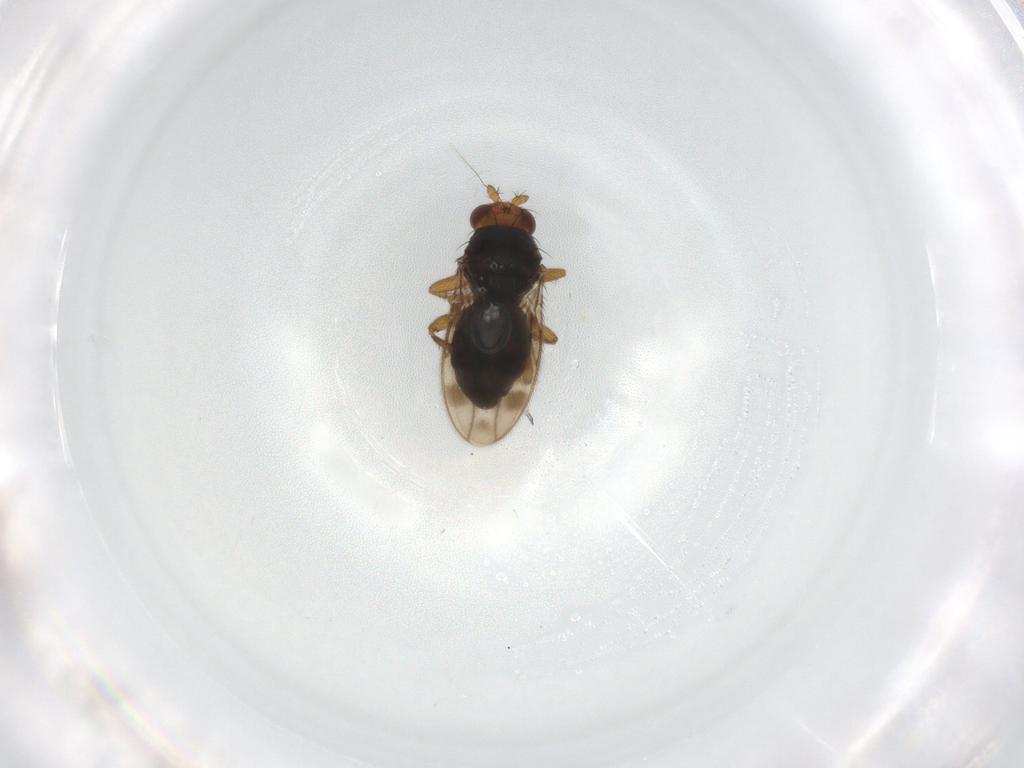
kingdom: Animalia
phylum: Arthropoda
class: Insecta
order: Diptera
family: Sphaeroceridae
